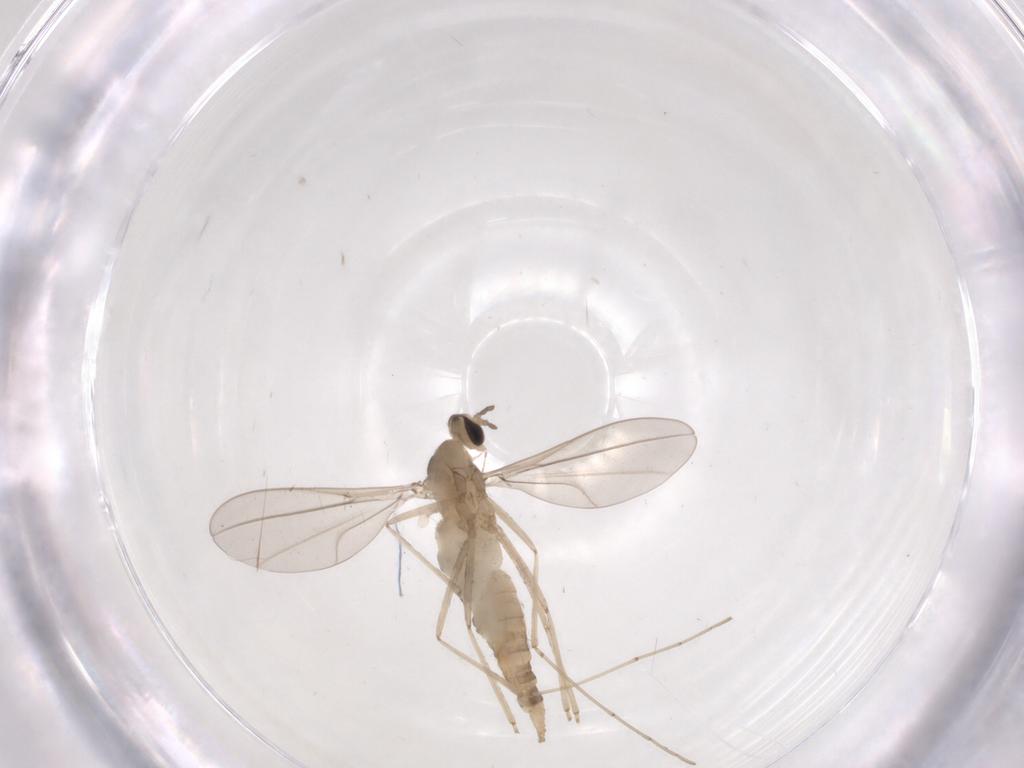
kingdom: Animalia
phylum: Arthropoda
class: Insecta
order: Diptera
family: Cecidomyiidae
